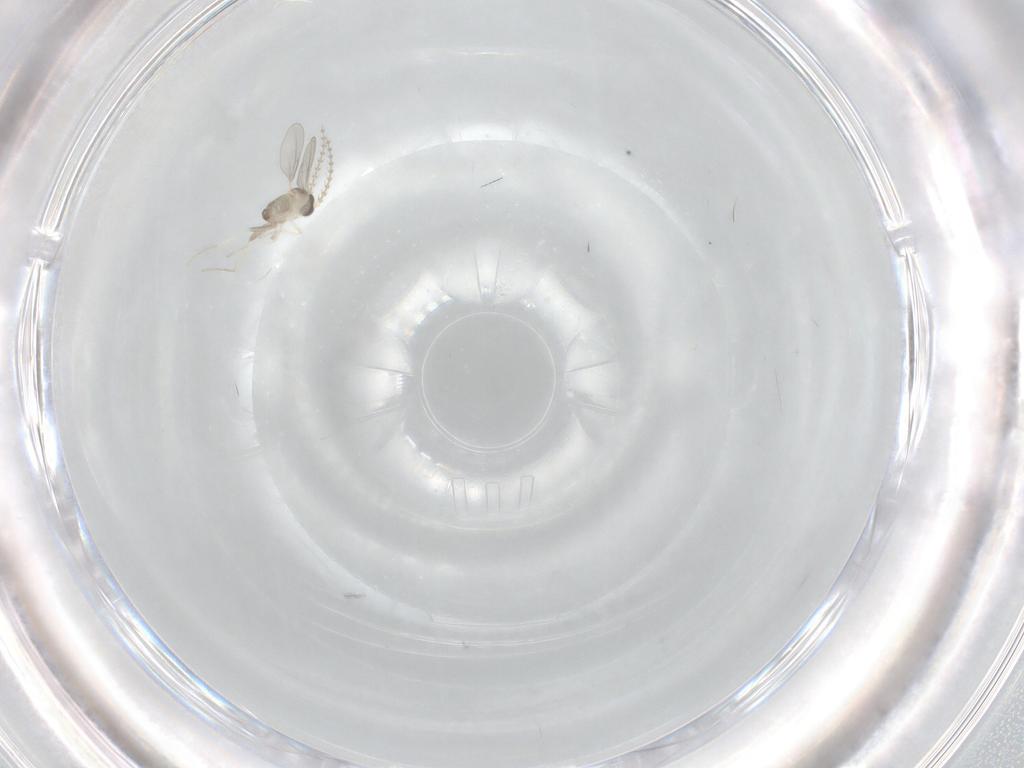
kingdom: Animalia
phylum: Arthropoda
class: Insecta
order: Diptera
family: Cecidomyiidae
